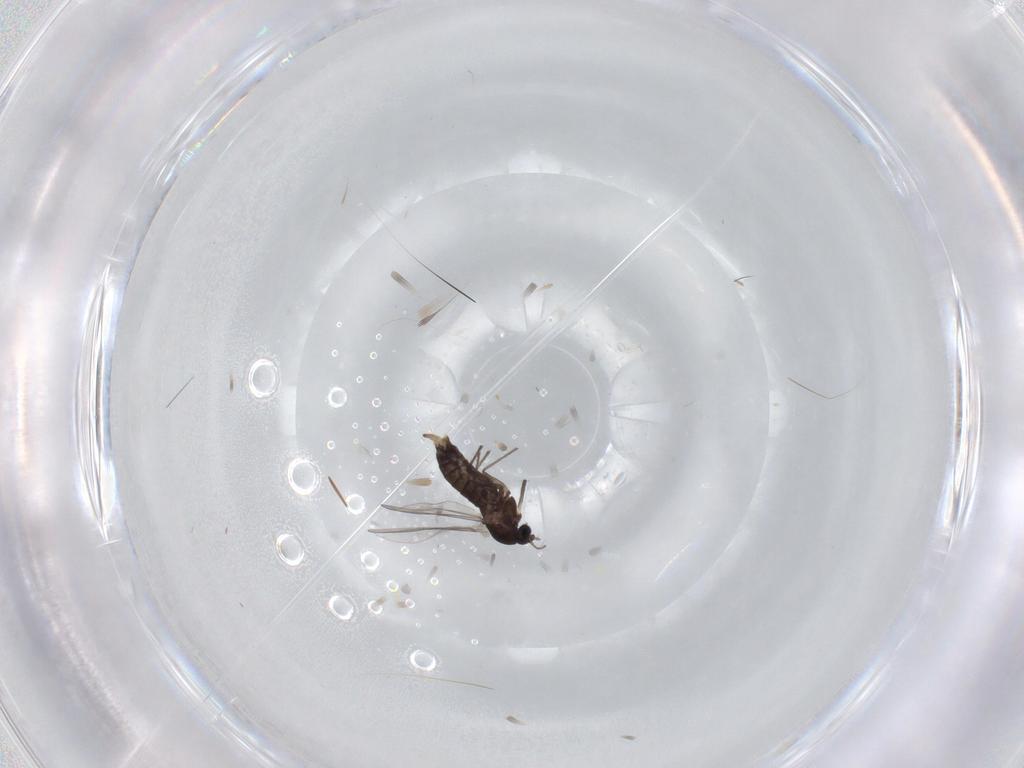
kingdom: Animalia
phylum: Arthropoda
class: Insecta
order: Diptera
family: Chironomidae
